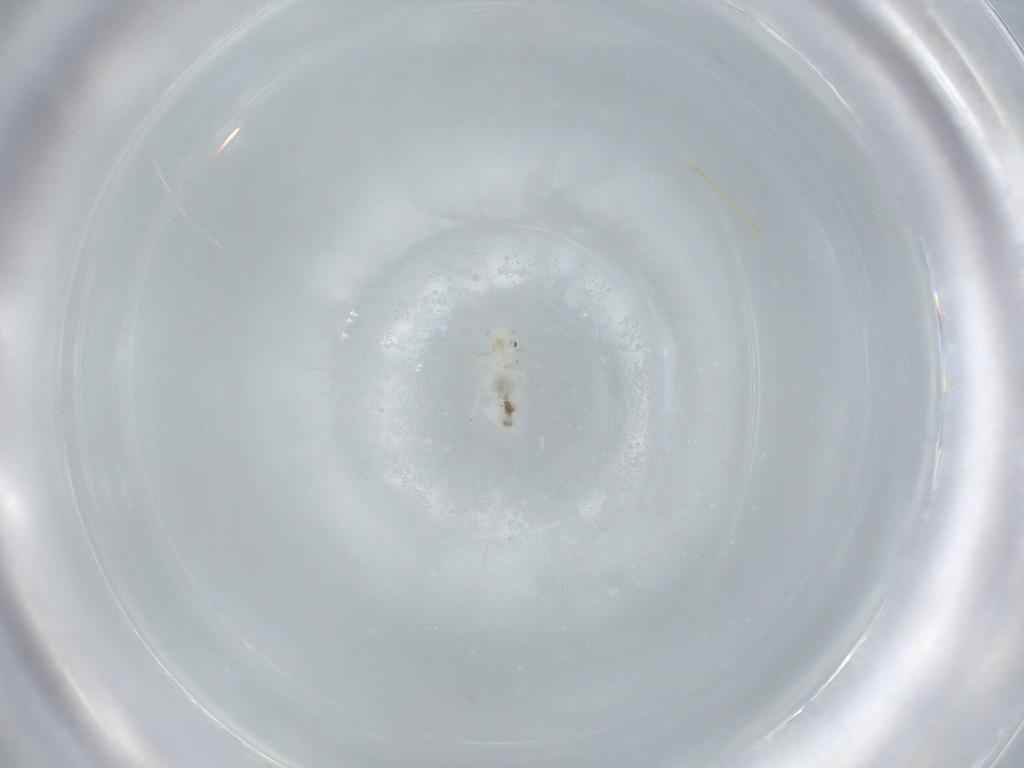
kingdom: Animalia
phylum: Arthropoda
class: Insecta
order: Psocodea
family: Caeciliusidae
